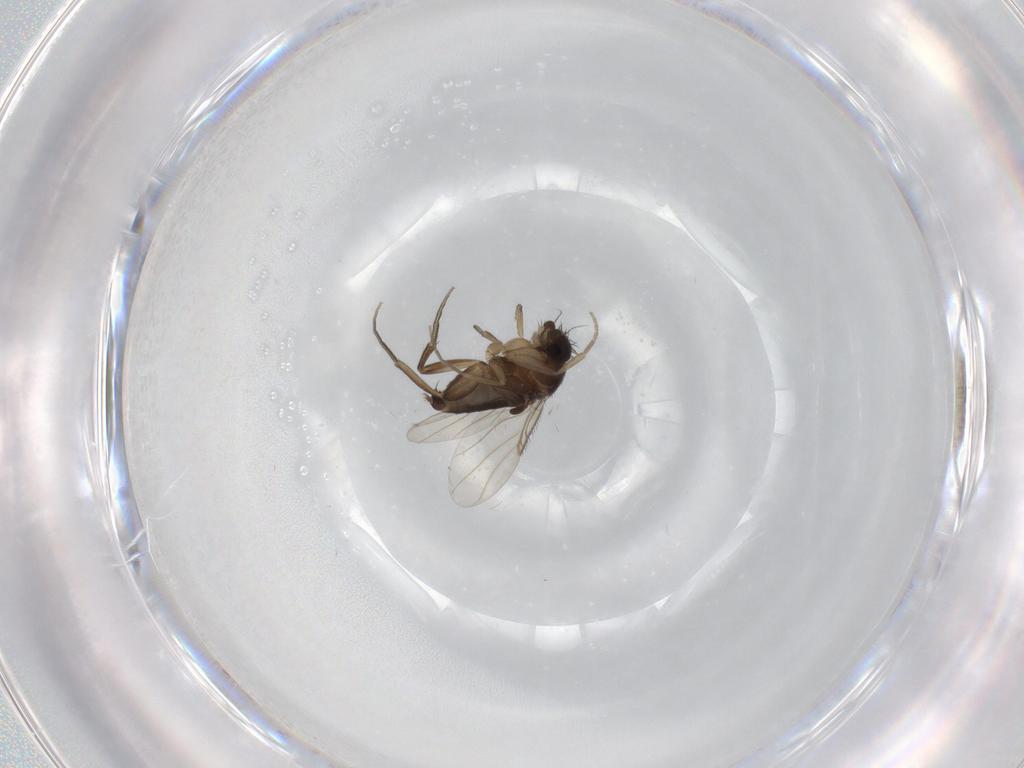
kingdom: Animalia
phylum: Arthropoda
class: Insecta
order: Diptera
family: Phoridae
